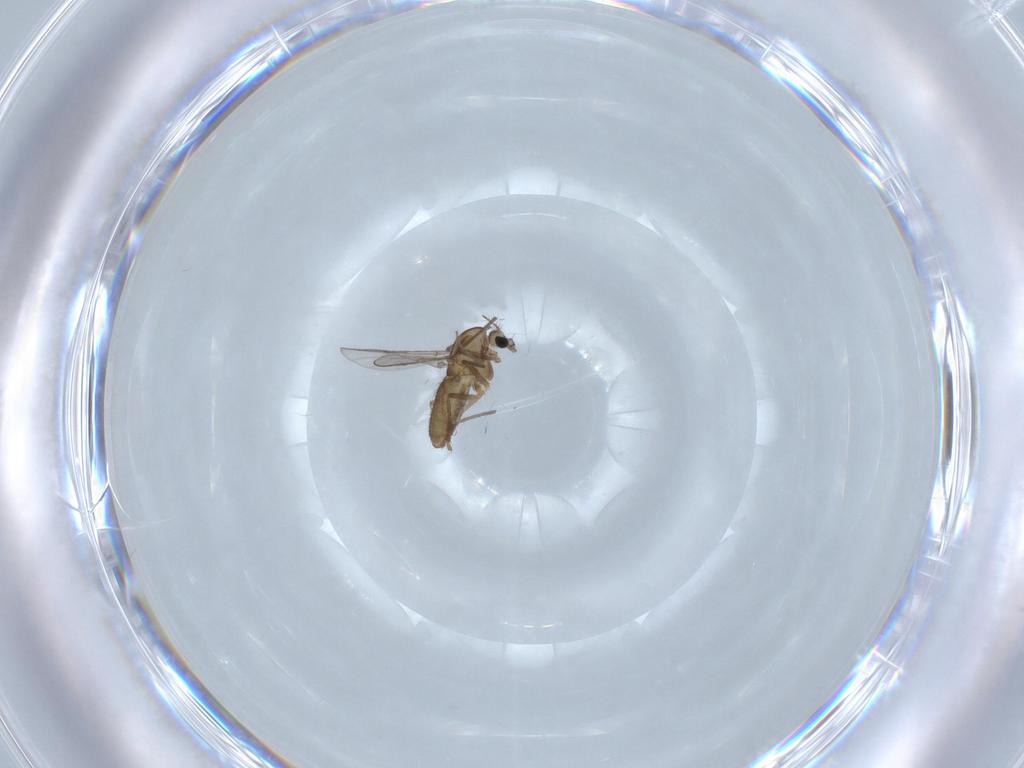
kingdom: Animalia
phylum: Arthropoda
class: Insecta
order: Diptera
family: Chironomidae
